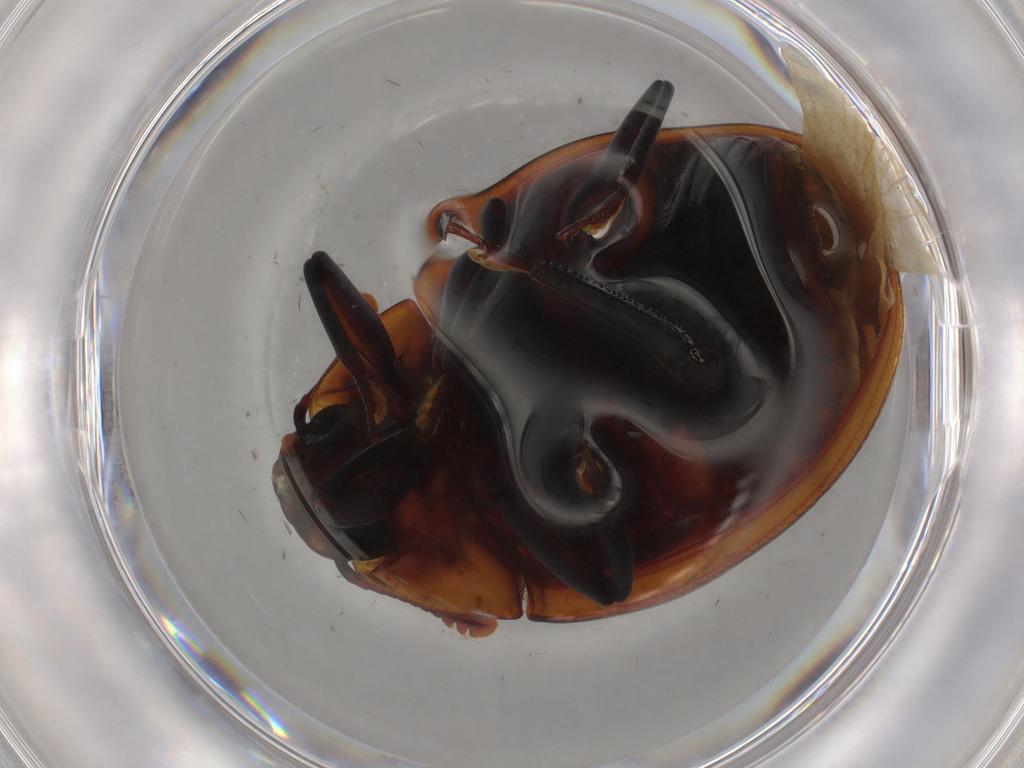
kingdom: Animalia
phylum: Arthropoda
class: Insecta
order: Coleoptera
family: Zopheridae
